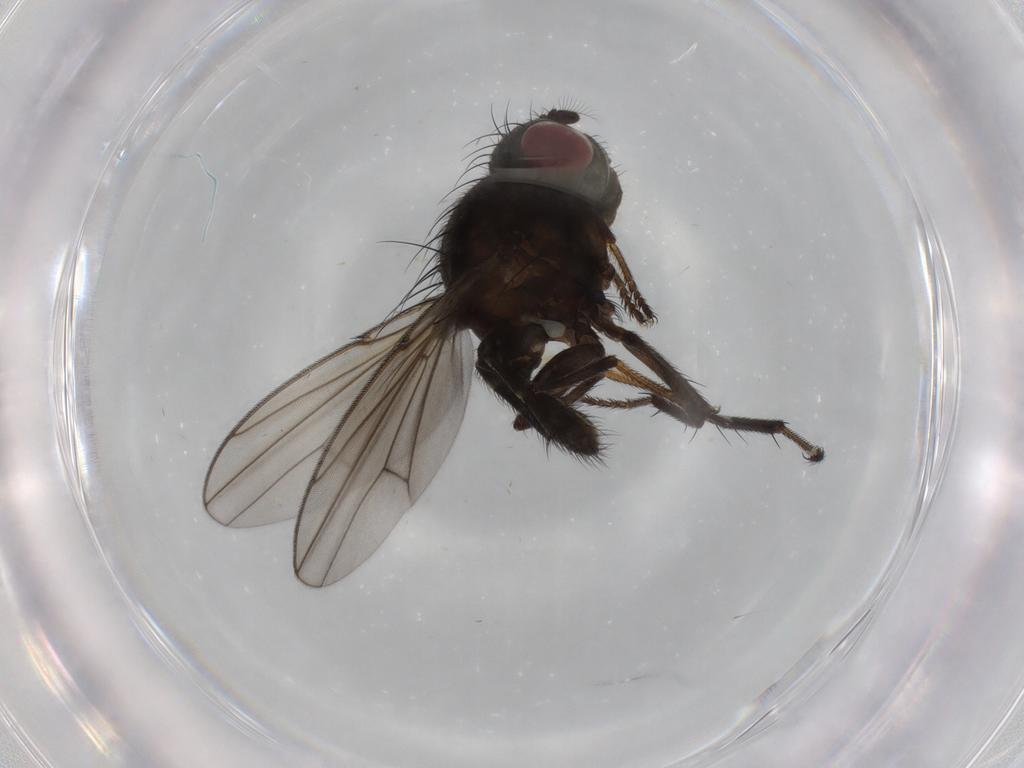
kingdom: Animalia
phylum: Arthropoda
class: Insecta
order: Diptera
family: Ephydridae
